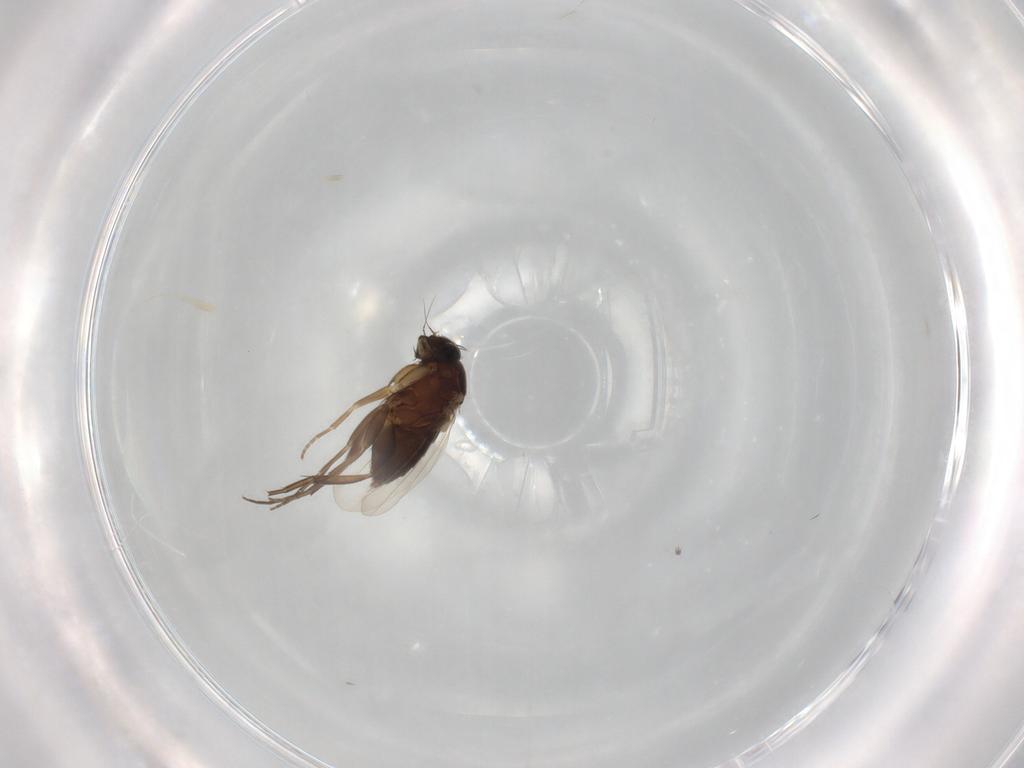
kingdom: Animalia
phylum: Arthropoda
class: Insecta
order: Diptera
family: Phoridae
